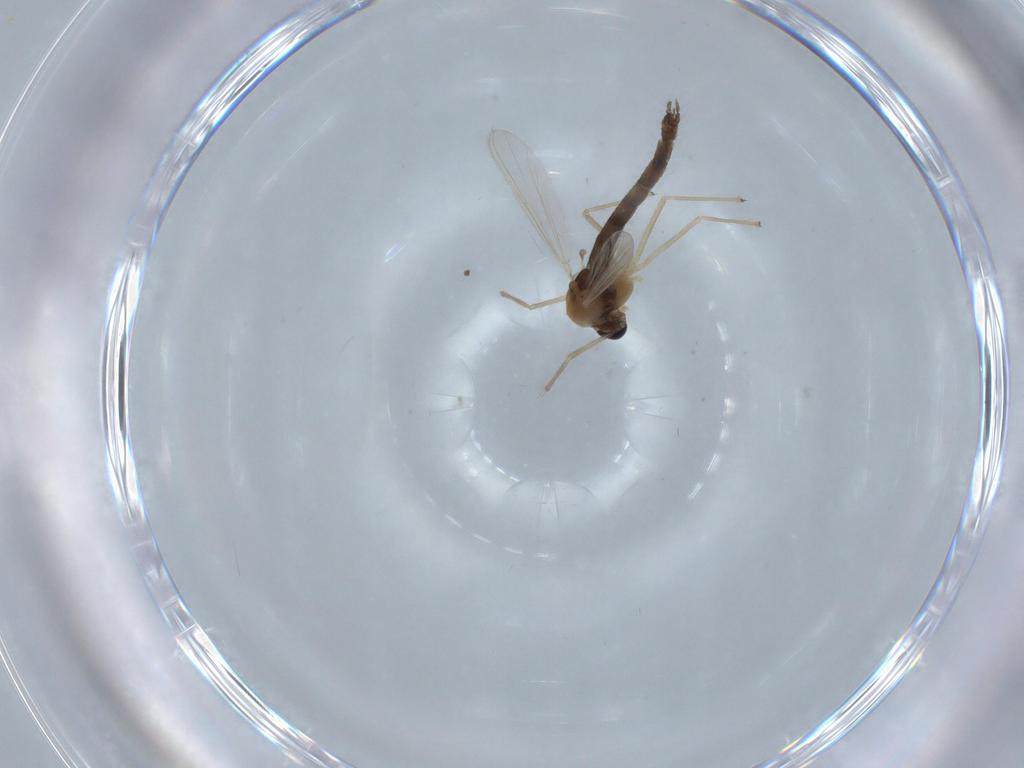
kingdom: Animalia
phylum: Arthropoda
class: Insecta
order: Diptera
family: Chironomidae
